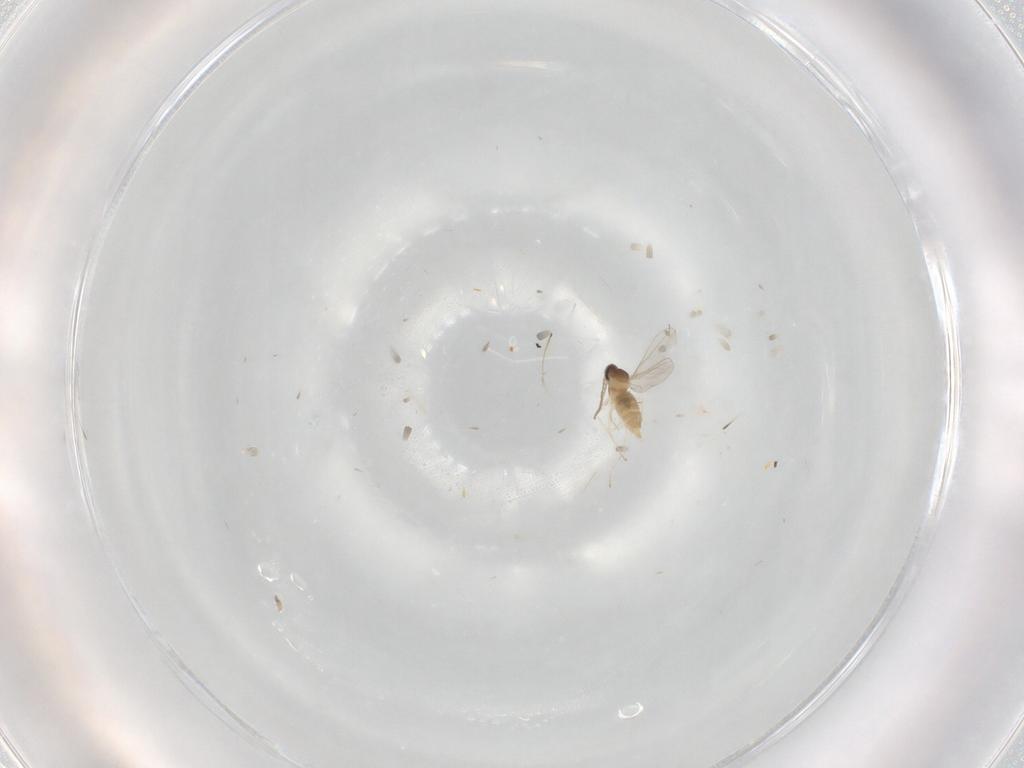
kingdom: Animalia
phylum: Arthropoda
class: Insecta
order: Diptera
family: Cecidomyiidae
